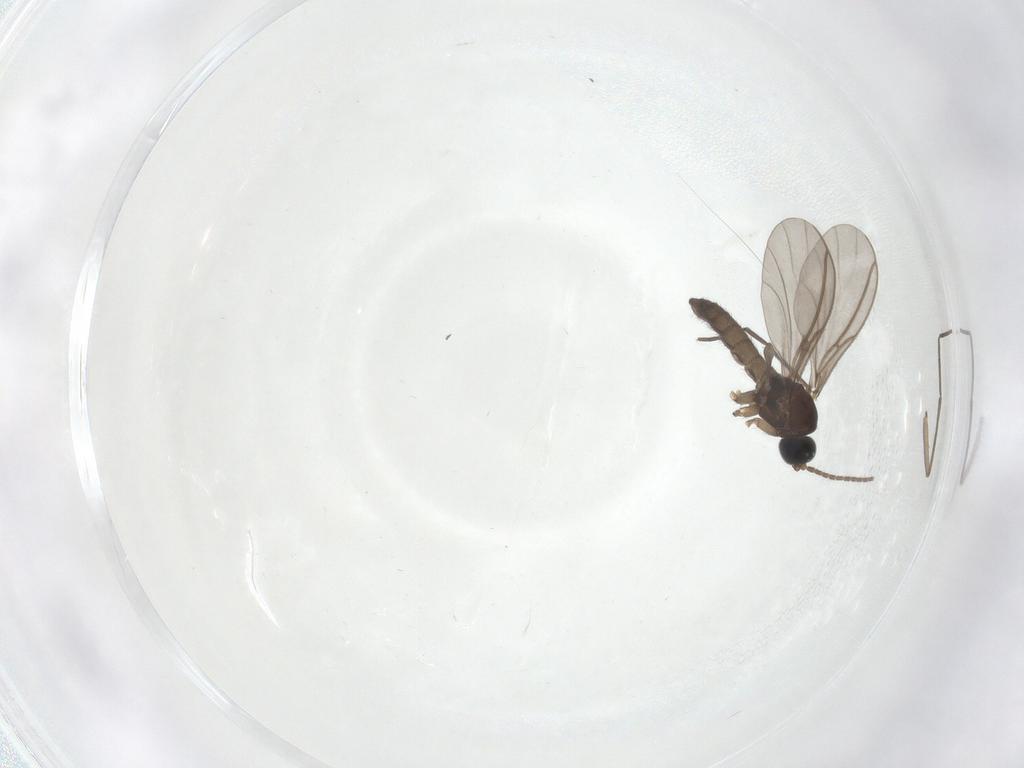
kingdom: Animalia
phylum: Arthropoda
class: Insecta
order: Diptera
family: Sciaridae
